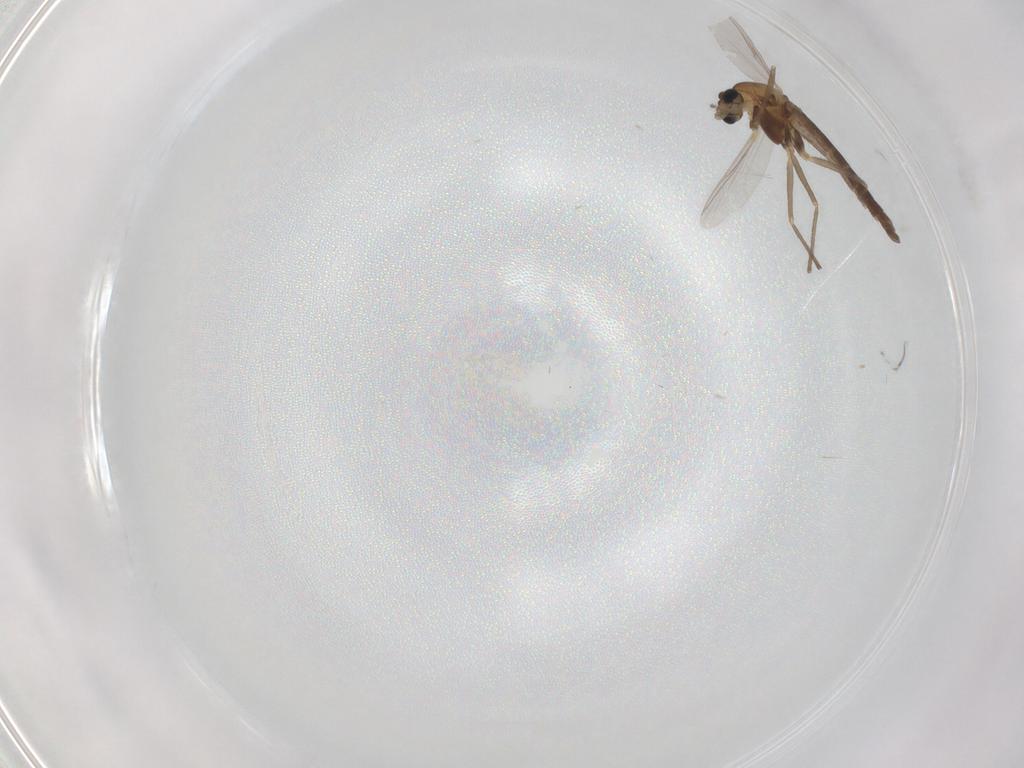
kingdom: Animalia
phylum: Arthropoda
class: Insecta
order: Diptera
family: Chironomidae
